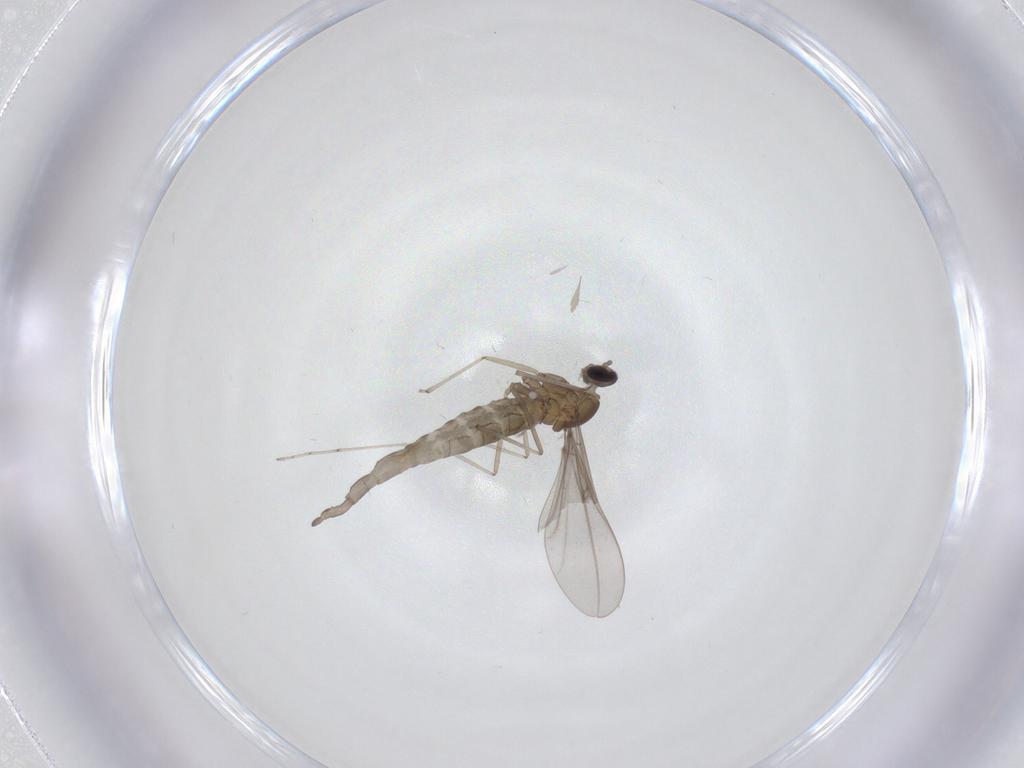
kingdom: Animalia
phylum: Arthropoda
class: Insecta
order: Diptera
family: Cecidomyiidae
